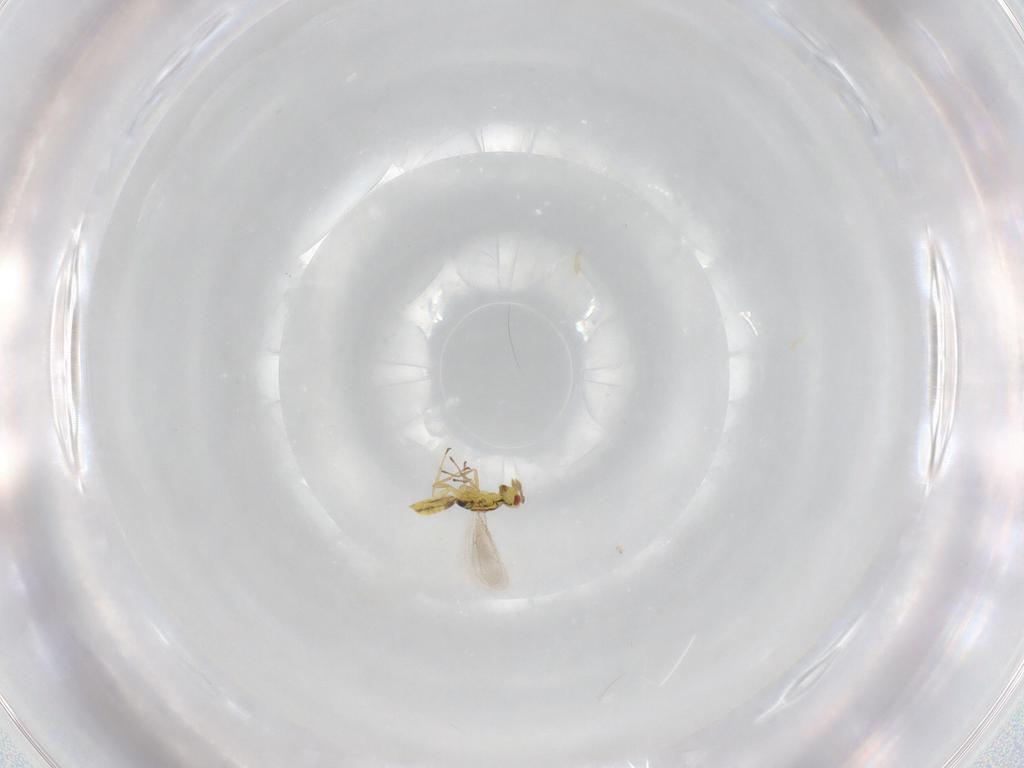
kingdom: Animalia
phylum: Arthropoda
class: Insecta
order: Hymenoptera
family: Eulophidae
